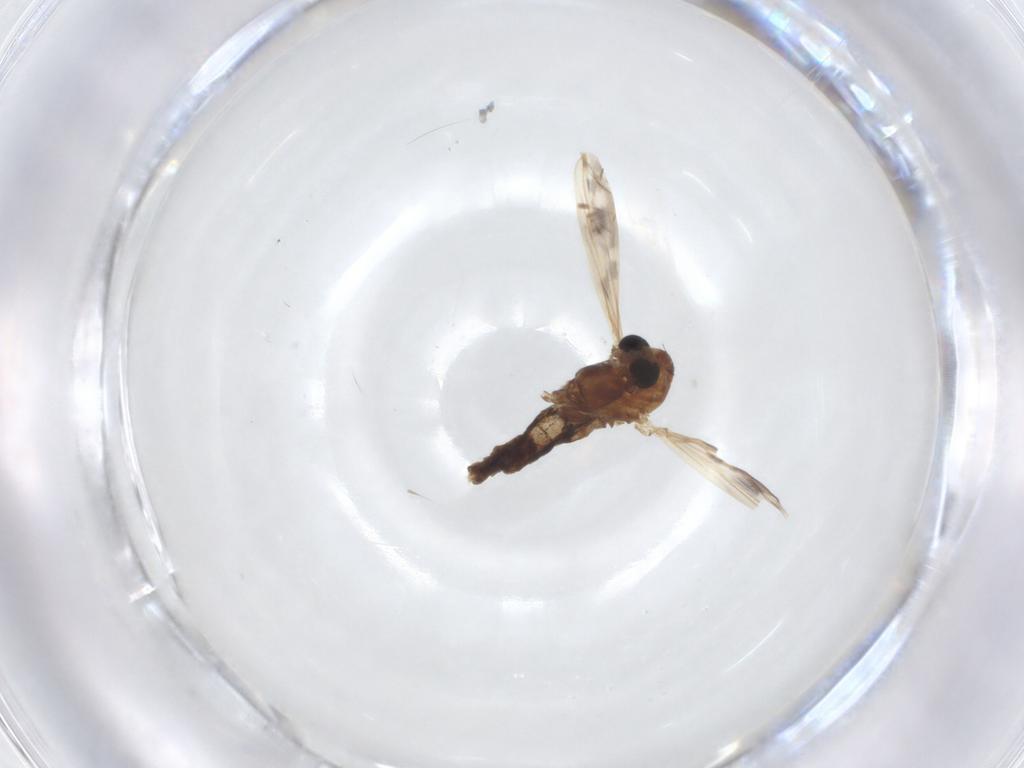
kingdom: Animalia
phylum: Arthropoda
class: Insecta
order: Diptera
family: Chironomidae
